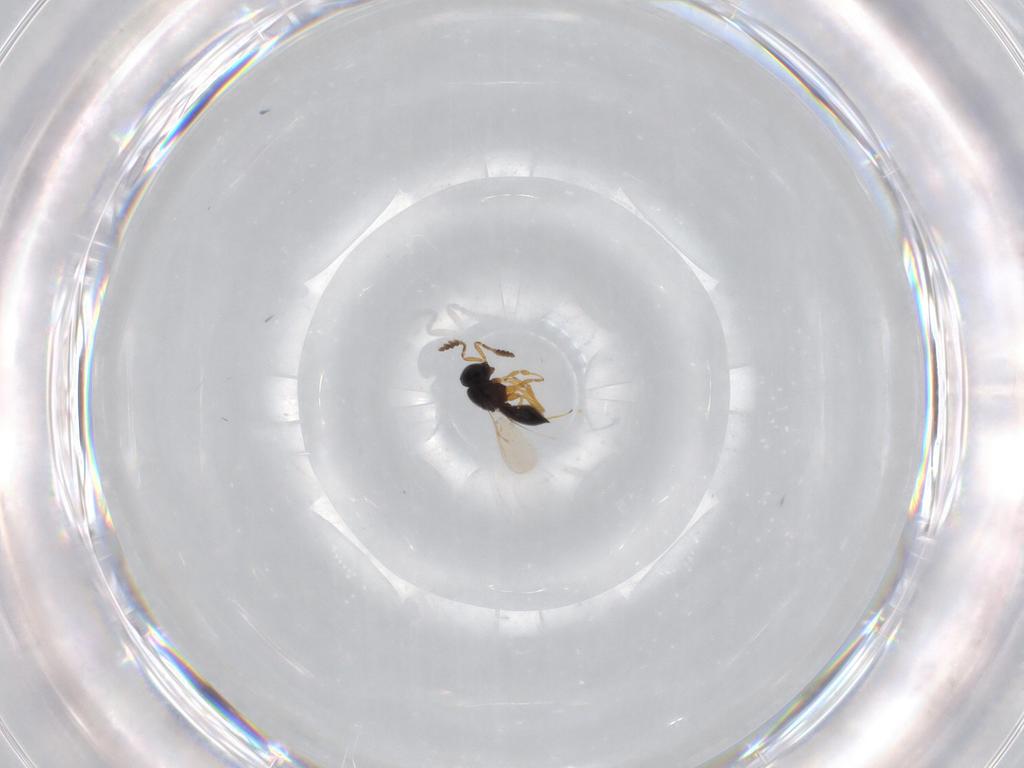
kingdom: Animalia
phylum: Arthropoda
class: Insecta
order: Hymenoptera
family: Scelionidae
